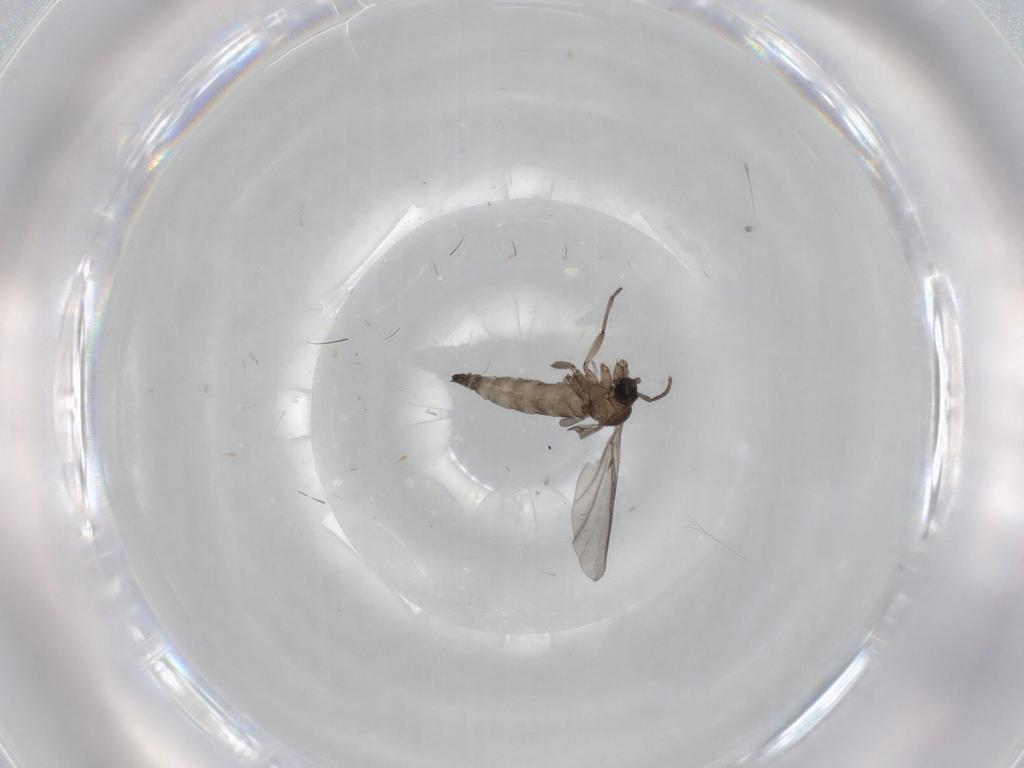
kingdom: Animalia
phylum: Arthropoda
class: Insecta
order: Diptera
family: Sciaridae
